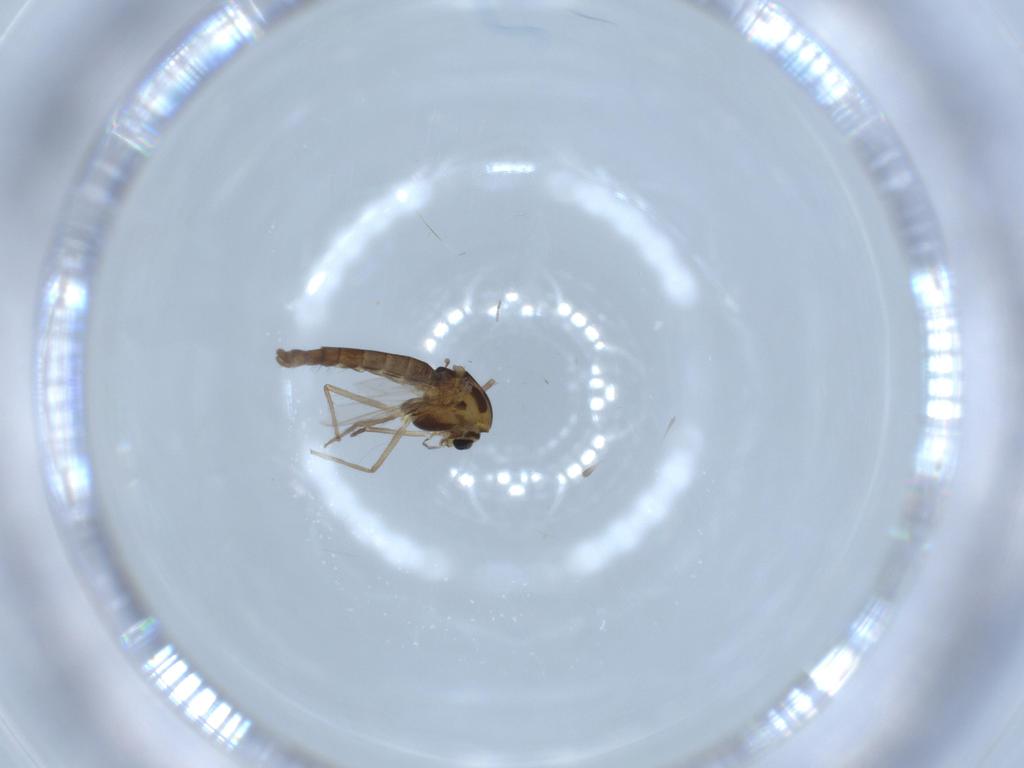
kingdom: Animalia
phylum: Arthropoda
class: Insecta
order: Diptera
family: Chironomidae
